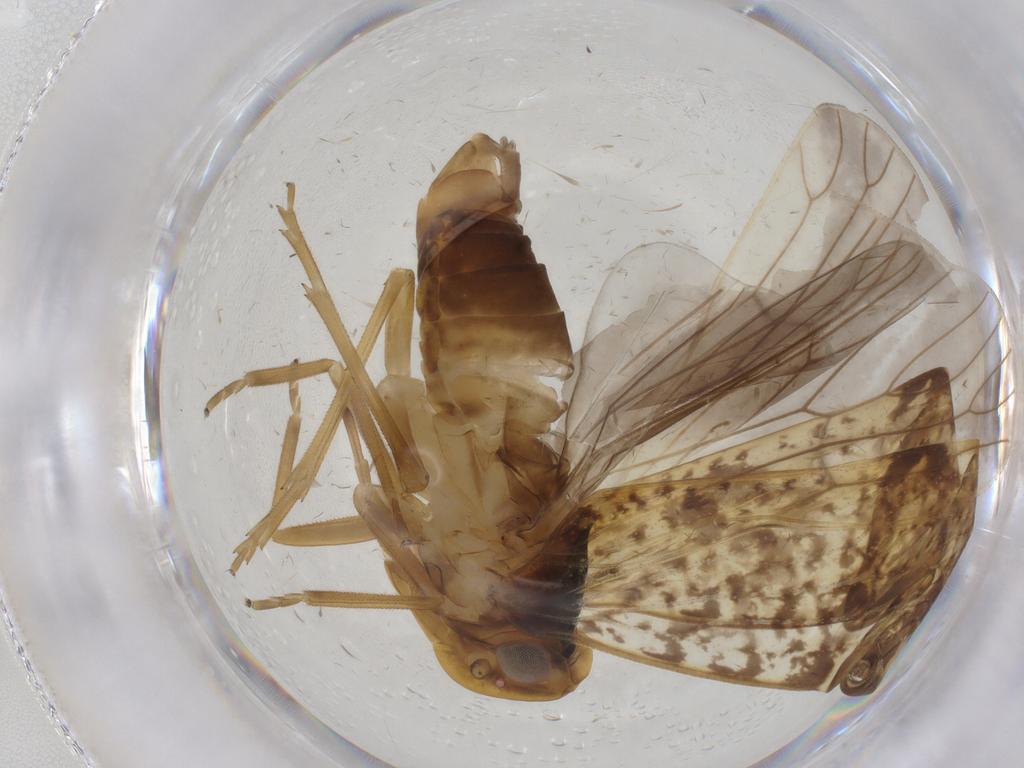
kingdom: Animalia
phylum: Arthropoda
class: Insecta
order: Hemiptera
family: Cixiidae
